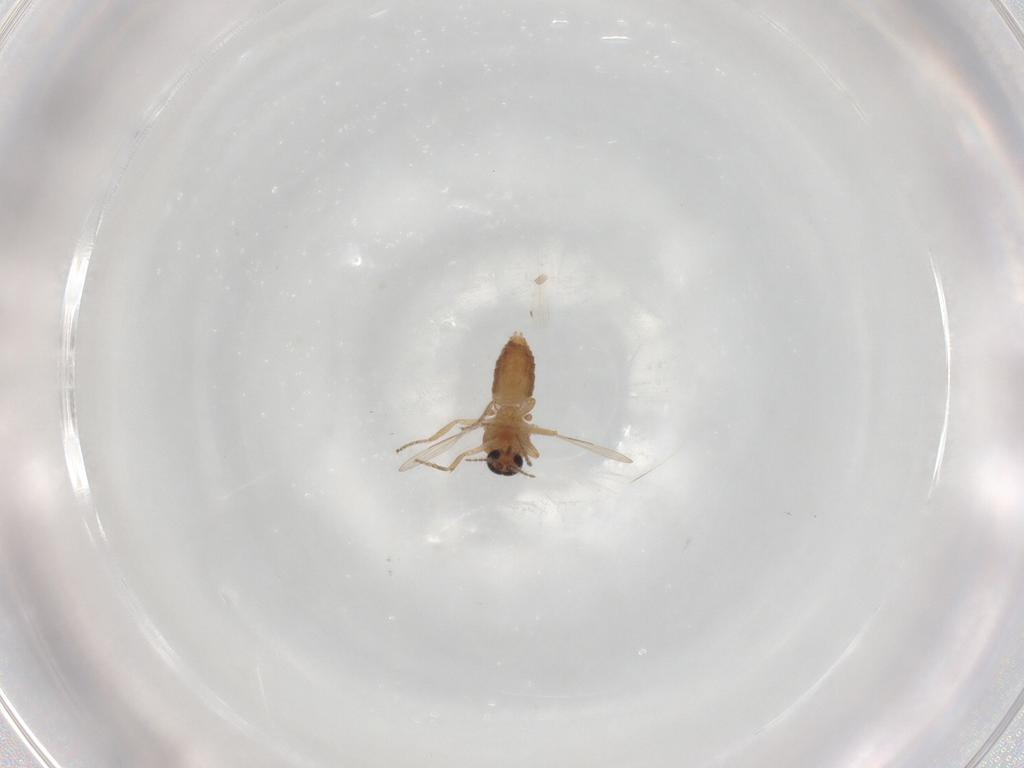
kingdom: Animalia
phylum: Arthropoda
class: Insecta
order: Diptera
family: Ceratopogonidae
